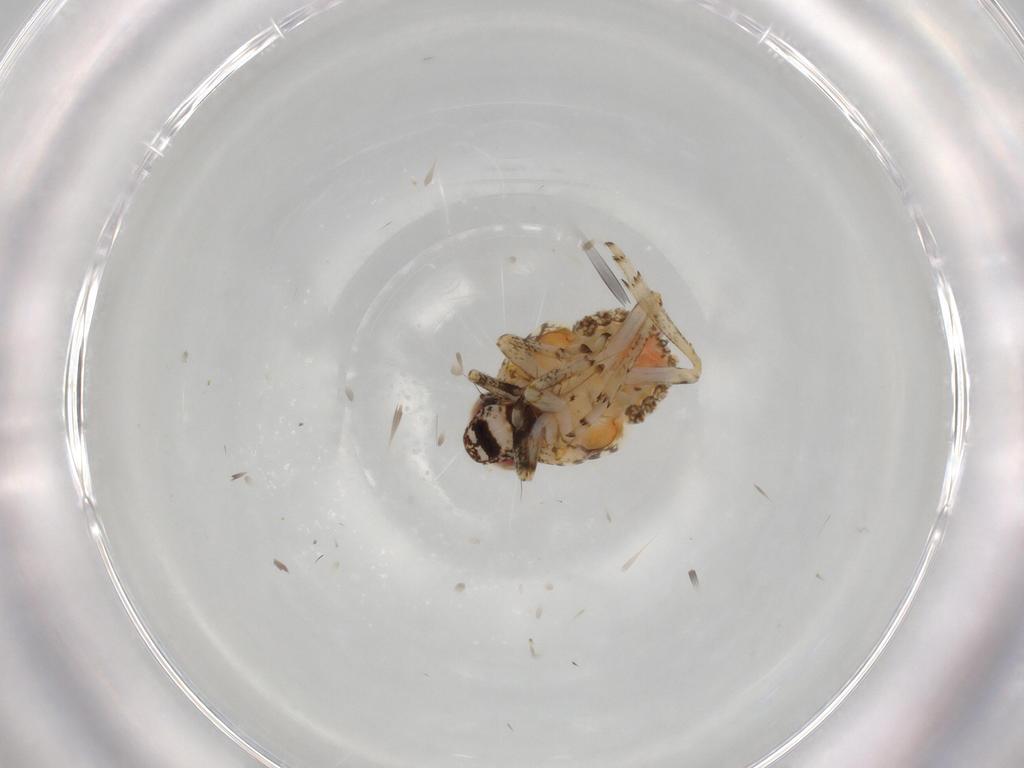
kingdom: Animalia
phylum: Arthropoda
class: Insecta
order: Hemiptera
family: Issidae
